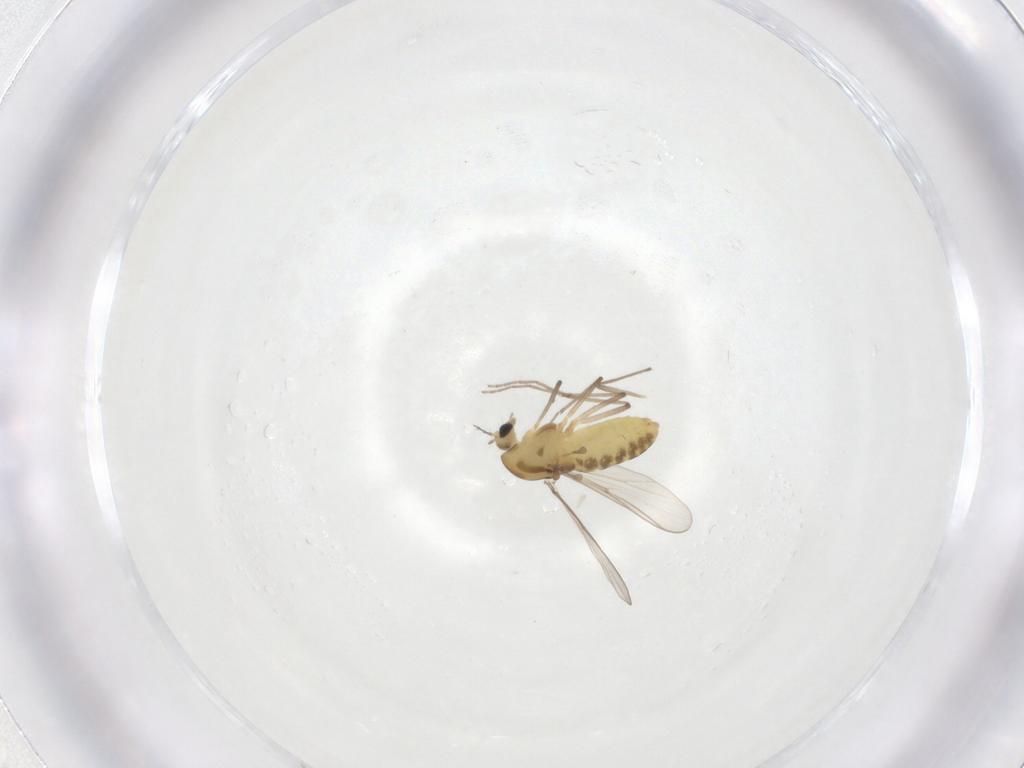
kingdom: Animalia
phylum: Arthropoda
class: Insecta
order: Diptera
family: Chironomidae
